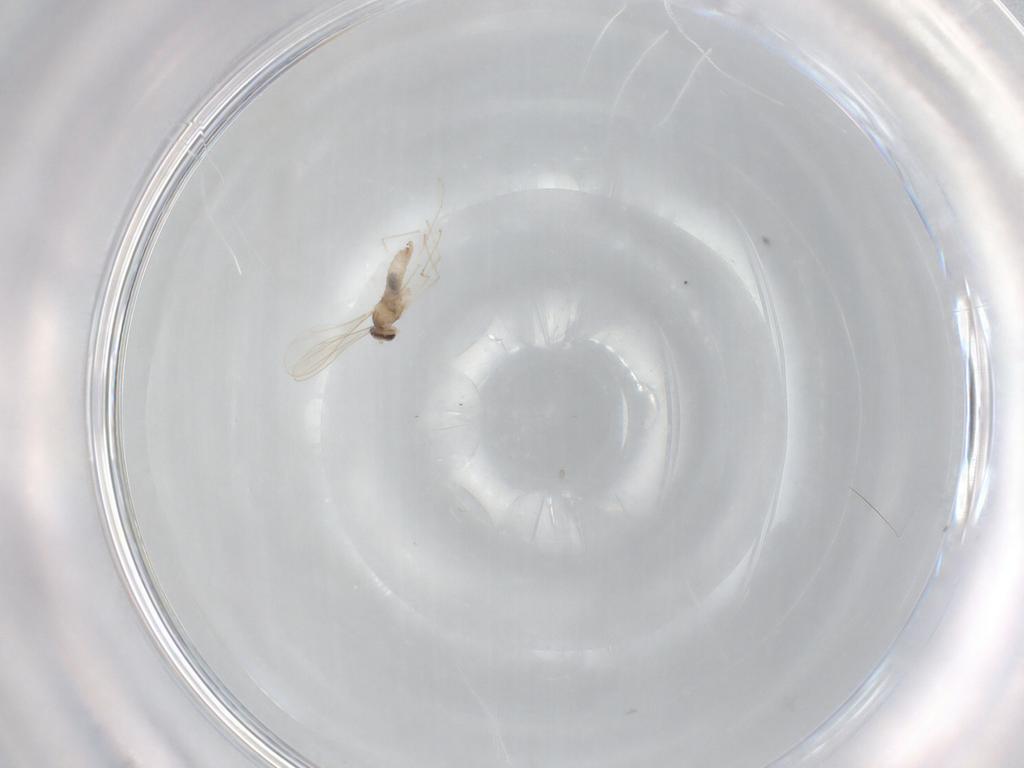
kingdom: Animalia
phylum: Arthropoda
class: Insecta
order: Diptera
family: Cecidomyiidae
